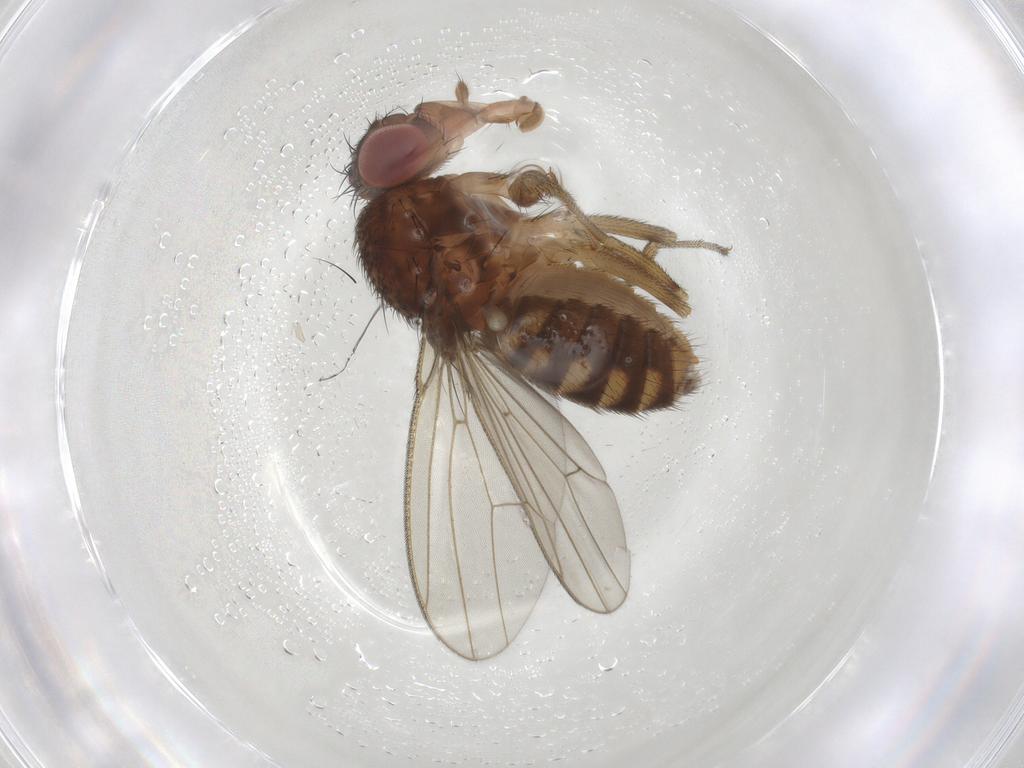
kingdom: Animalia
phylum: Arthropoda
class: Insecta
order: Diptera
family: Drosophilidae
